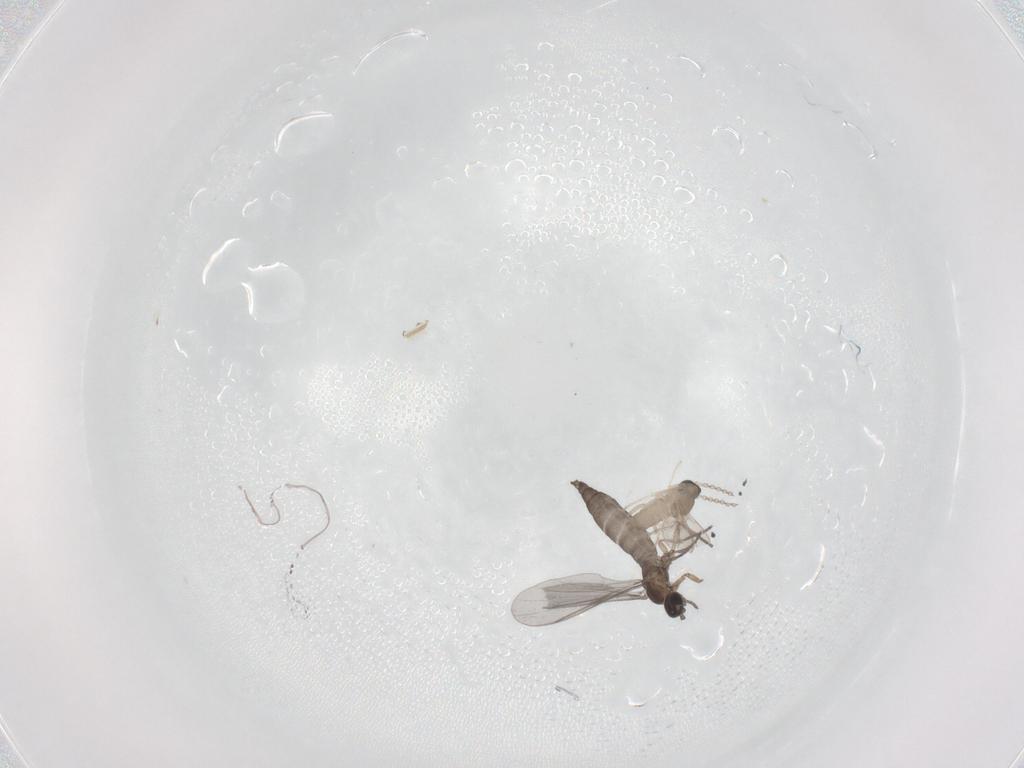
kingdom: Animalia
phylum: Arthropoda
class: Insecta
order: Diptera
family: Sciaridae
